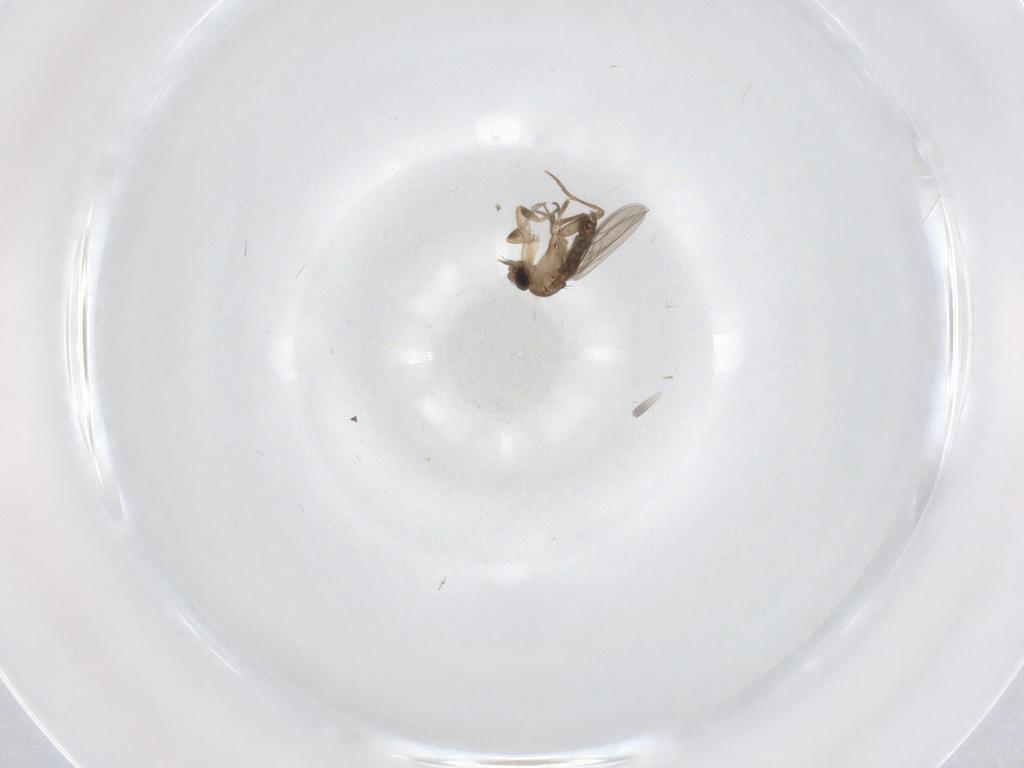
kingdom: Animalia
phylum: Arthropoda
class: Insecta
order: Diptera
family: Phoridae
